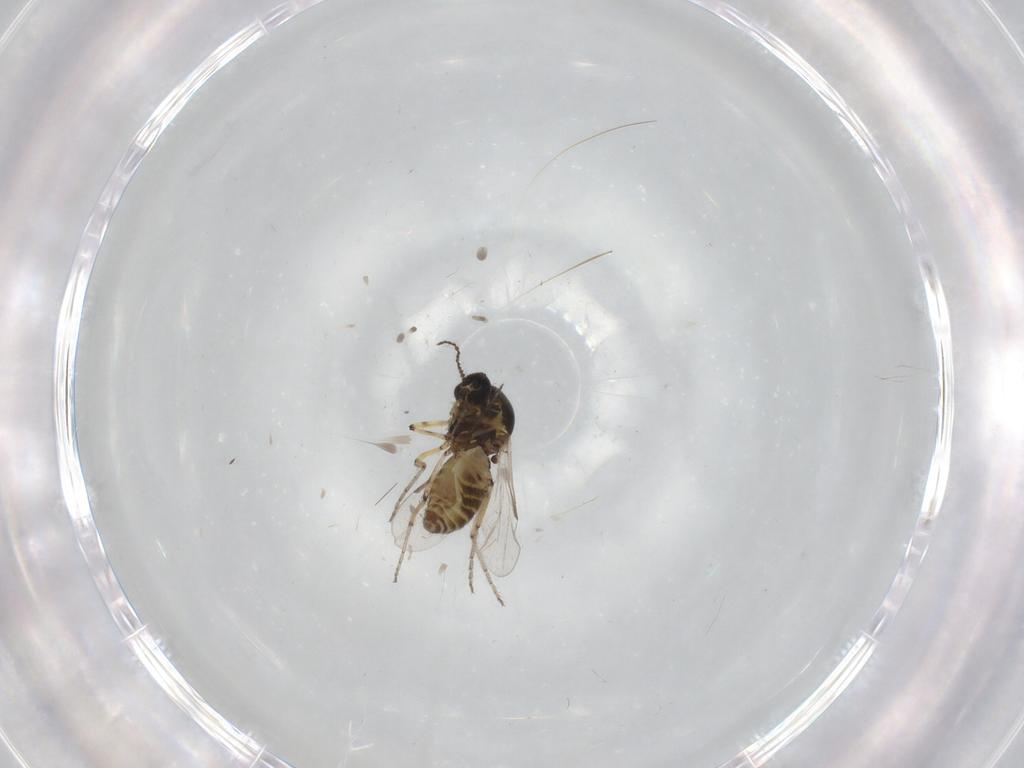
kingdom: Animalia
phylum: Arthropoda
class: Insecta
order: Diptera
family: Ceratopogonidae
